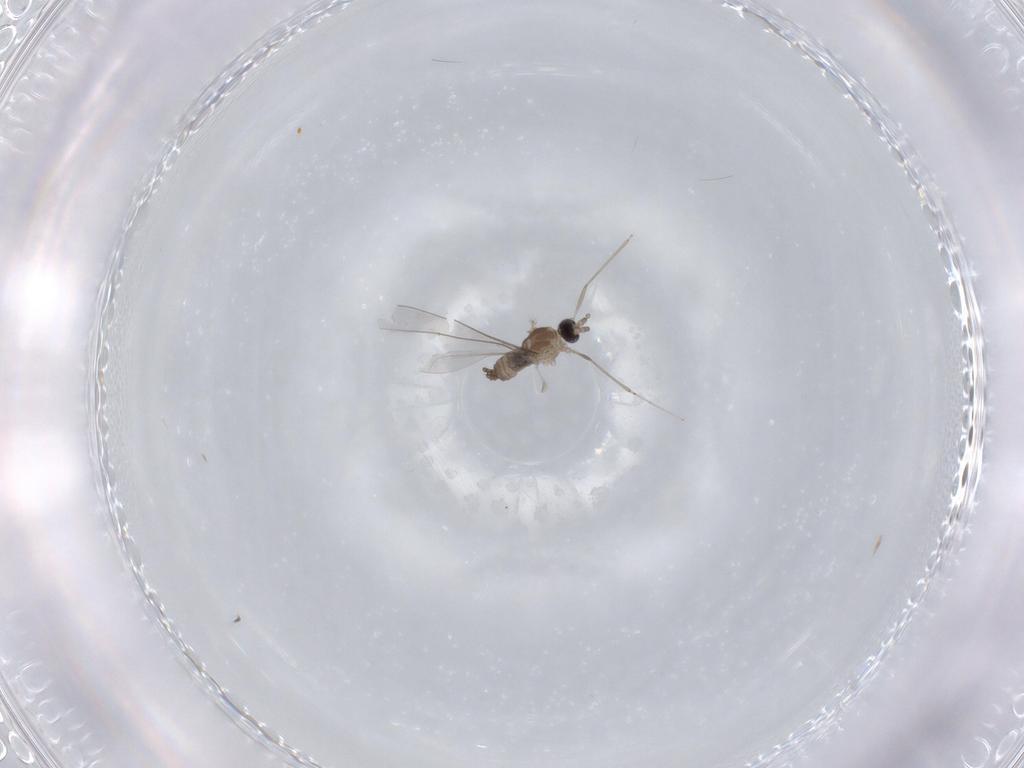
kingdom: Animalia
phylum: Arthropoda
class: Insecta
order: Diptera
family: Cecidomyiidae
